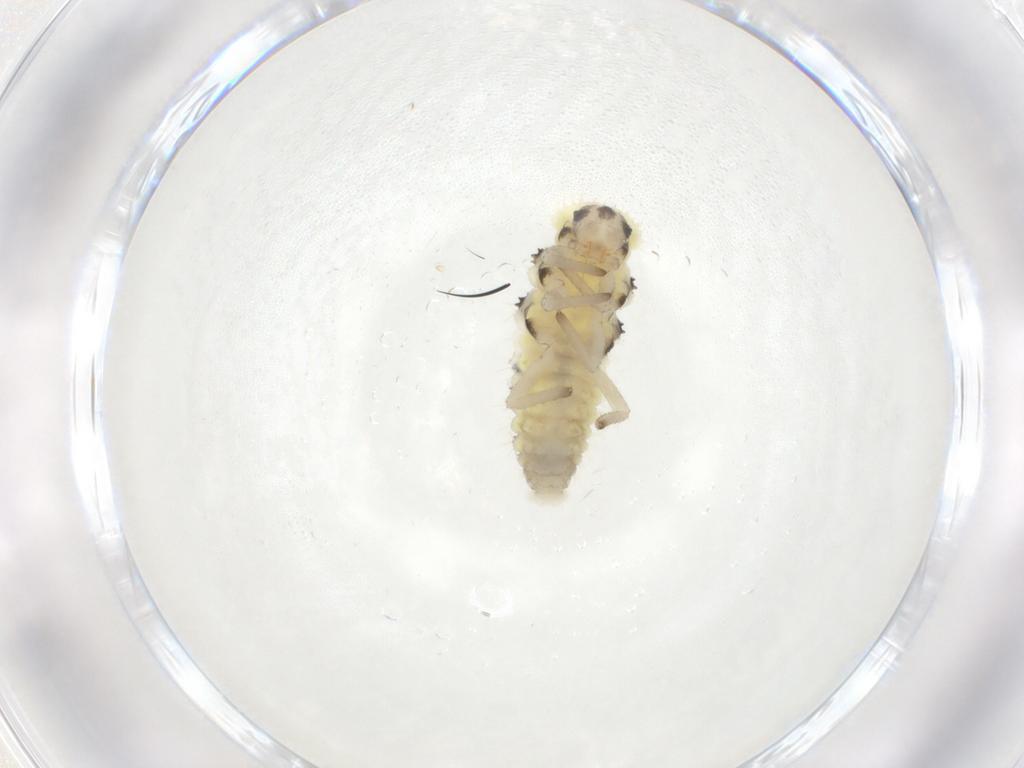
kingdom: Animalia
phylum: Arthropoda
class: Insecta
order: Coleoptera
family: Coccinellidae
